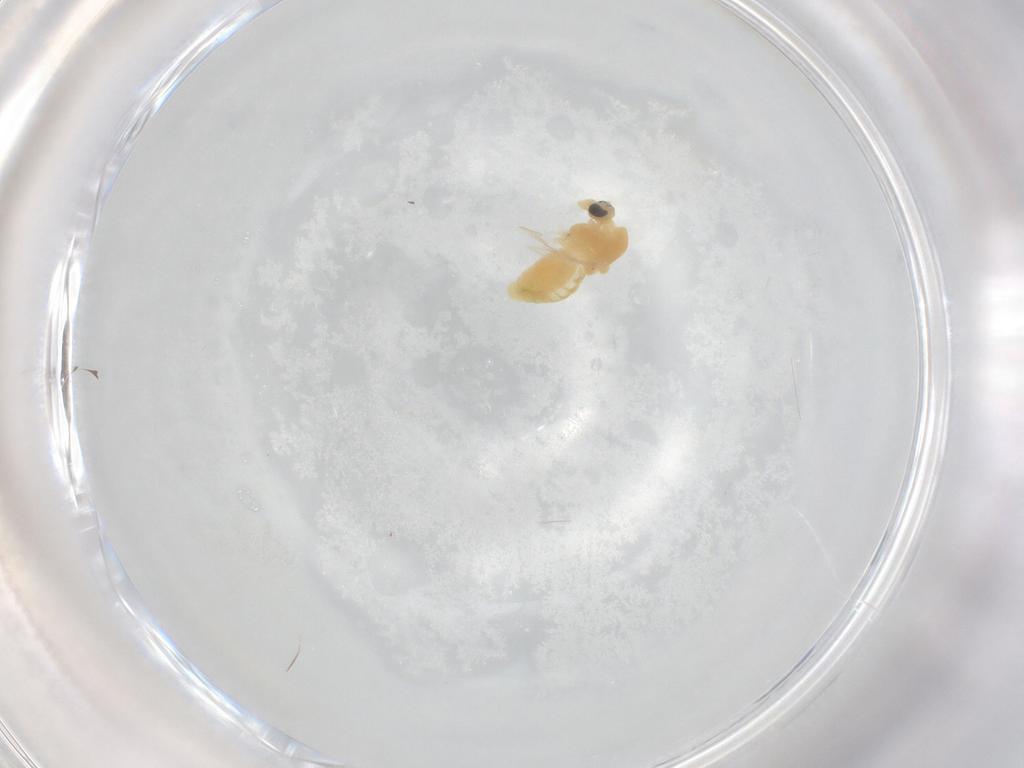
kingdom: Animalia
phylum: Arthropoda
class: Insecta
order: Diptera
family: Chironomidae
